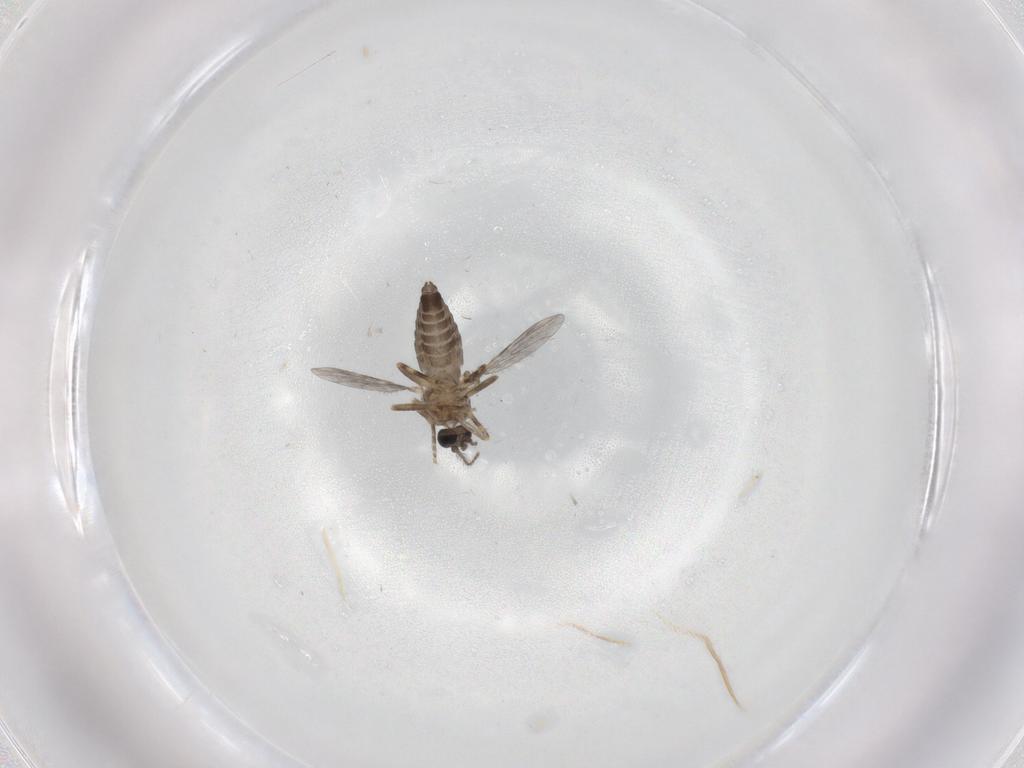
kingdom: Animalia
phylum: Arthropoda
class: Insecta
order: Diptera
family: Ceratopogonidae
